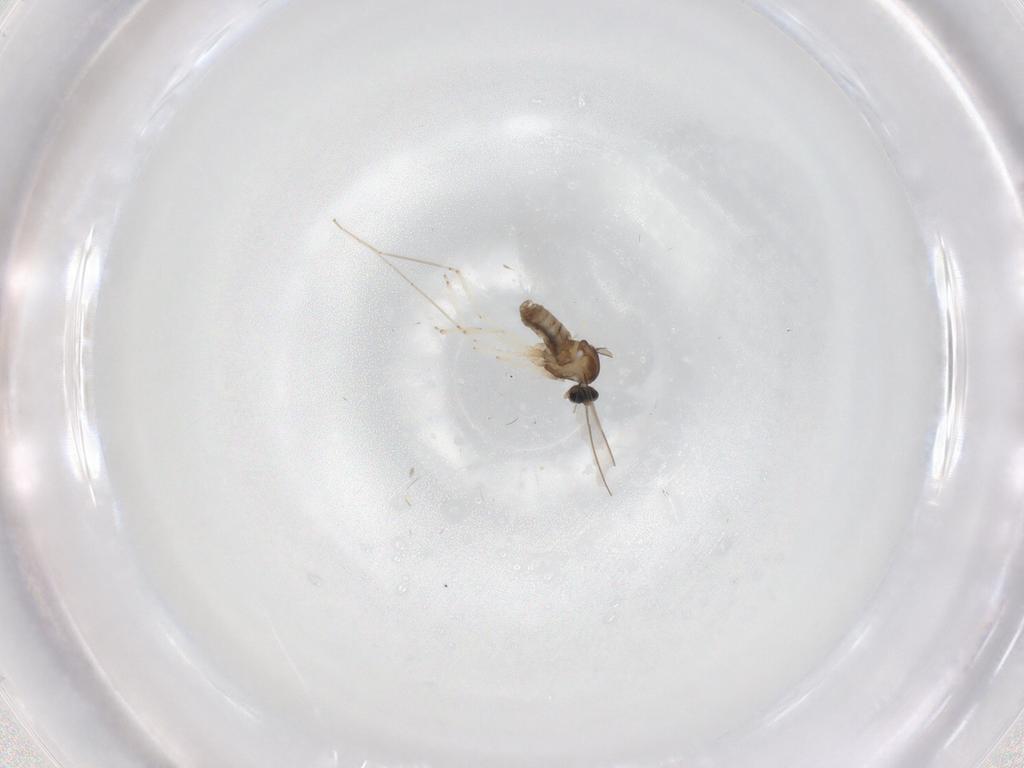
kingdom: Animalia
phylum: Arthropoda
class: Insecta
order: Diptera
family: Cecidomyiidae
